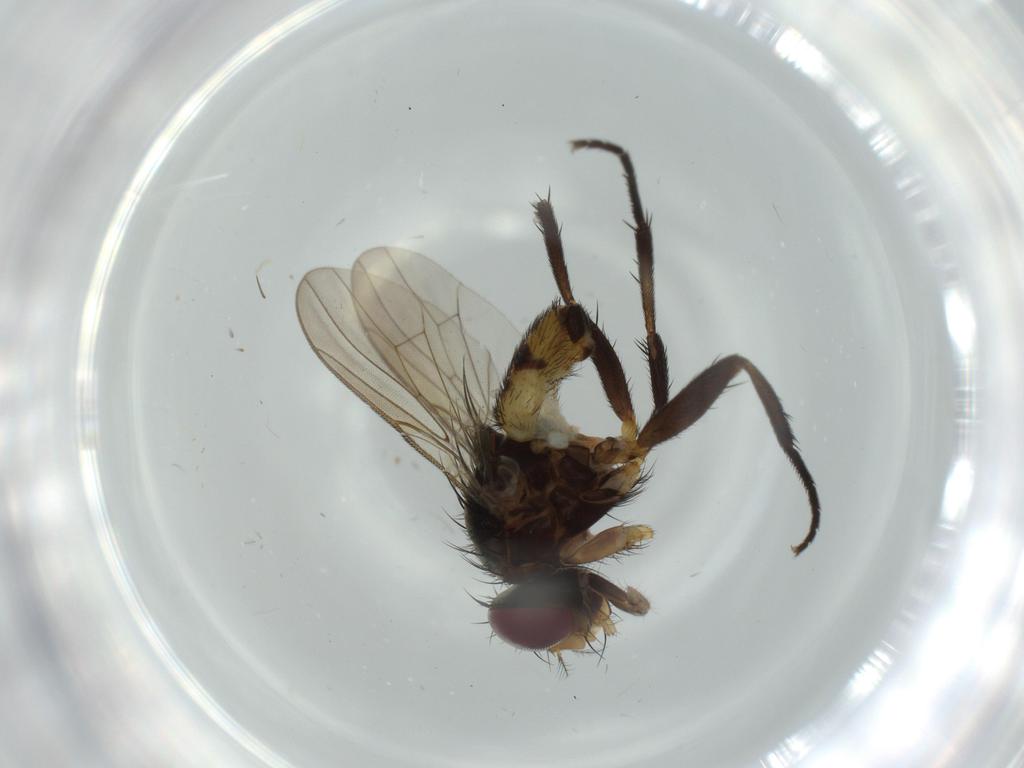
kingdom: Animalia
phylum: Arthropoda
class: Insecta
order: Diptera
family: Anthomyiidae
